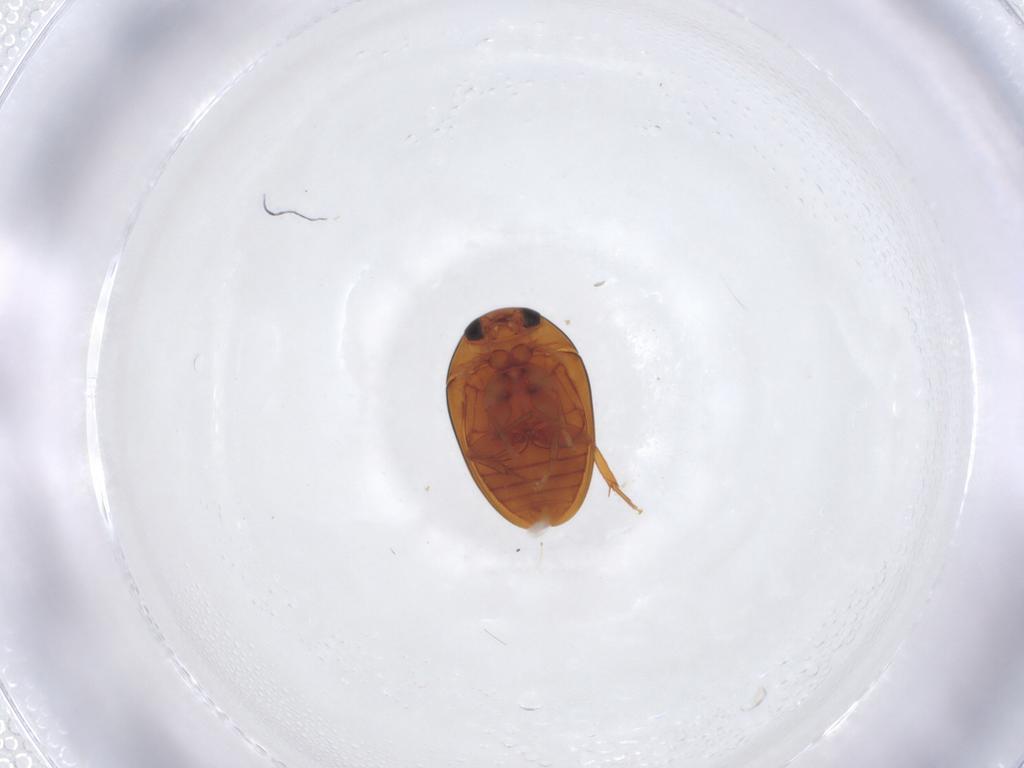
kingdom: Animalia
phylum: Arthropoda
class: Insecta
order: Coleoptera
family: Phalacridae
